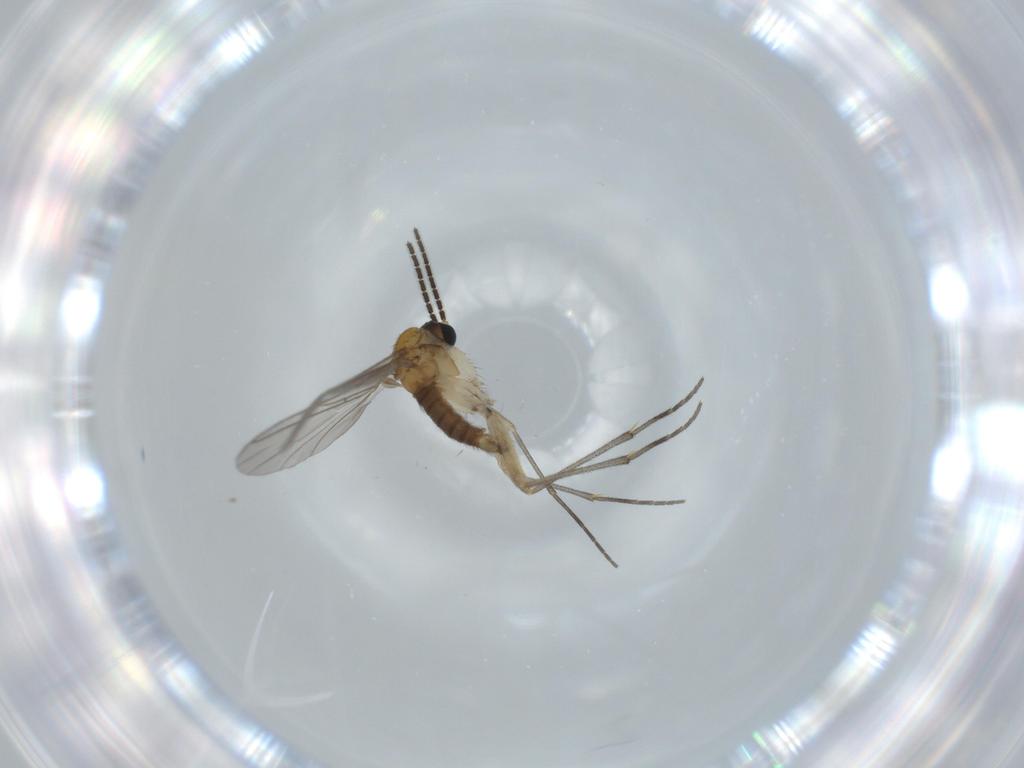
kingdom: Animalia
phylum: Arthropoda
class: Insecta
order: Diptera
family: Sciaridae
